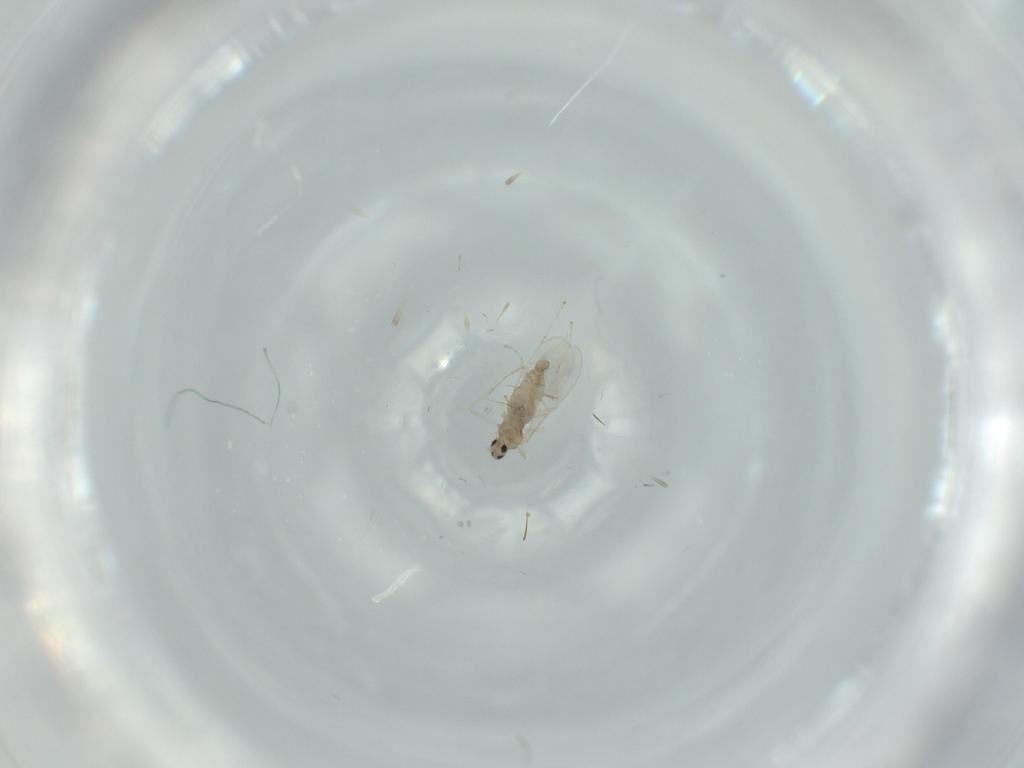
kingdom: Animalia
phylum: Arthropoda
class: Insecta
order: Diptera
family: Cecidomyiidae
